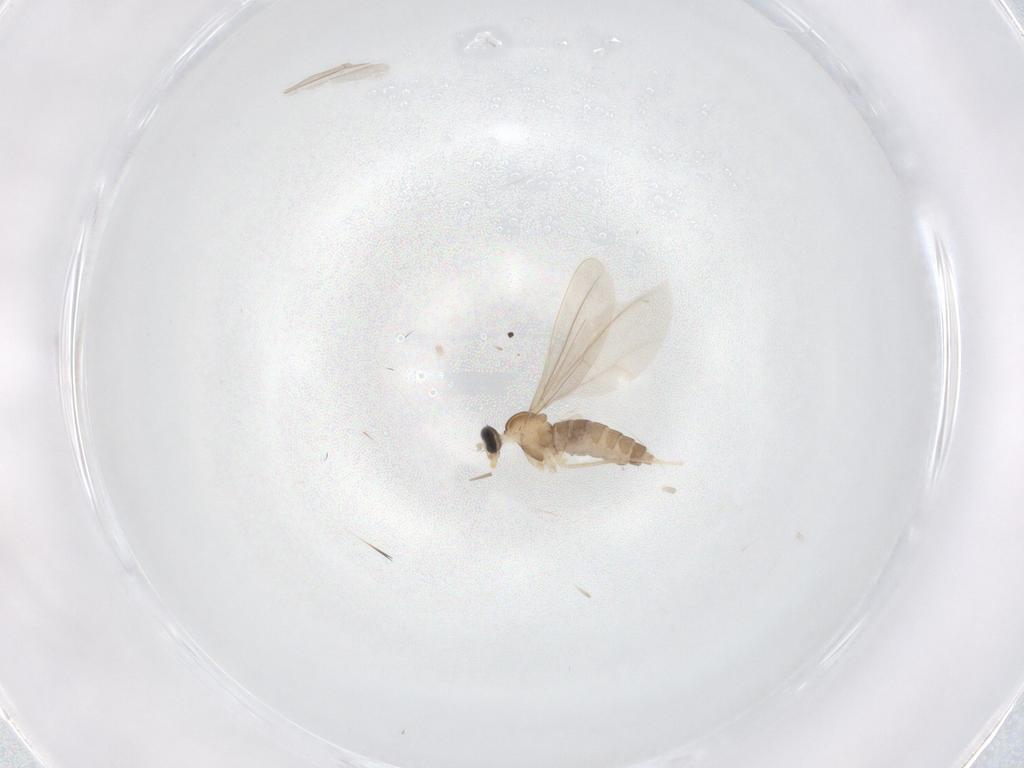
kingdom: Animalia
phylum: Arthropoda
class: Insecta
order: Diptera
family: Cecidomyiidae
